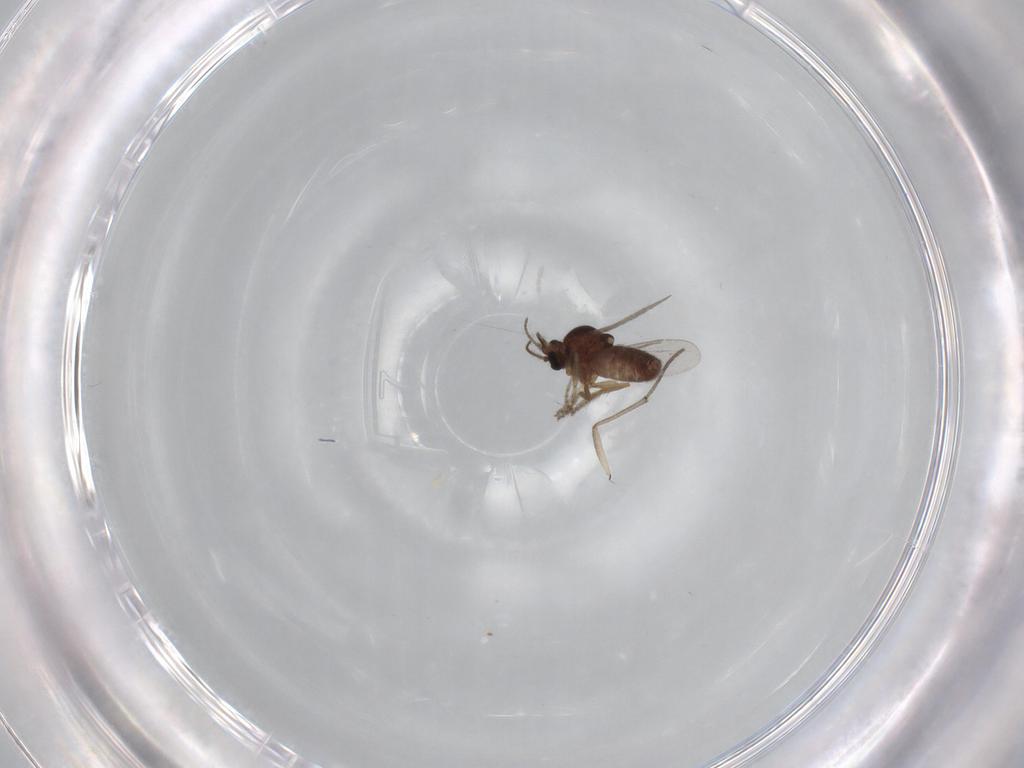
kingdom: Animalia
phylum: Arthropoda
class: Insecta
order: Diptera
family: Ceratopogonidae
